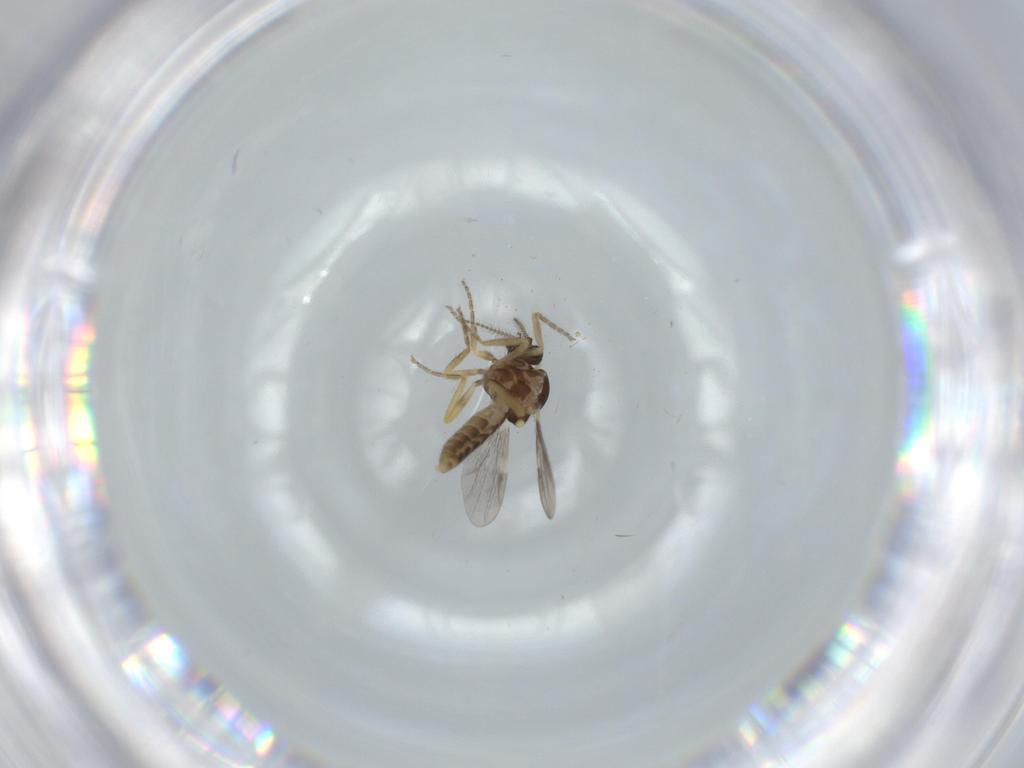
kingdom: Animalia
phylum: Arthropoda
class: Insecta
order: Diptera
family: Ceratopogonidae
